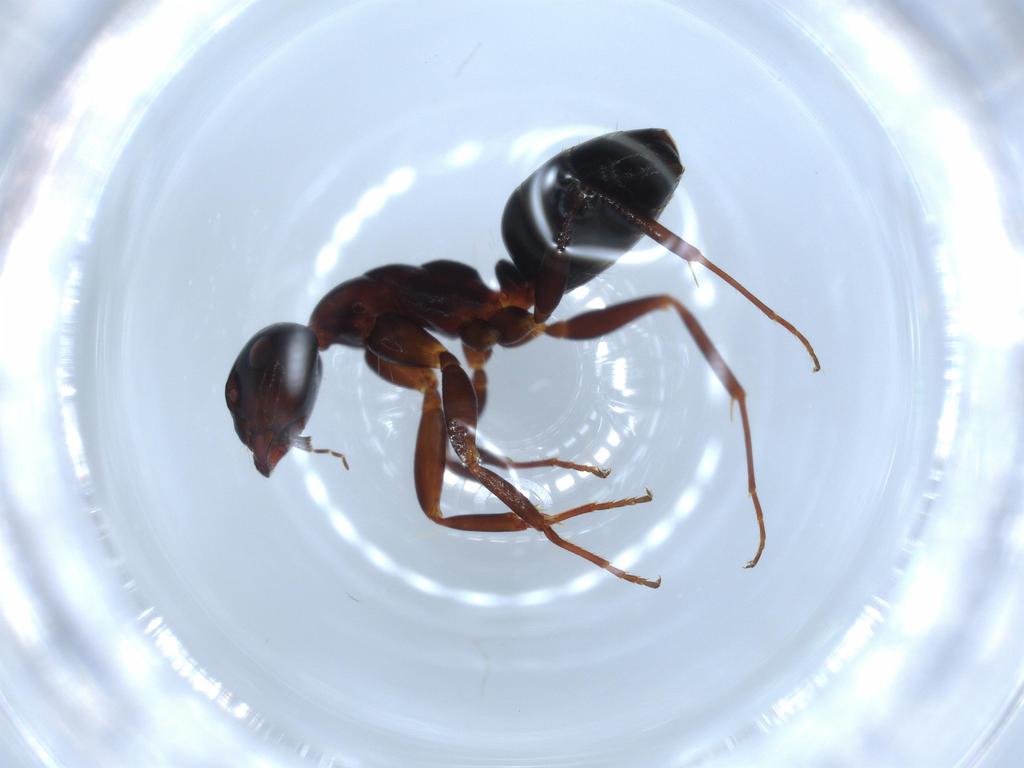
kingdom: Animalia
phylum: Arthropoda
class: Insecta
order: Hymenoptera
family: Formicidae
